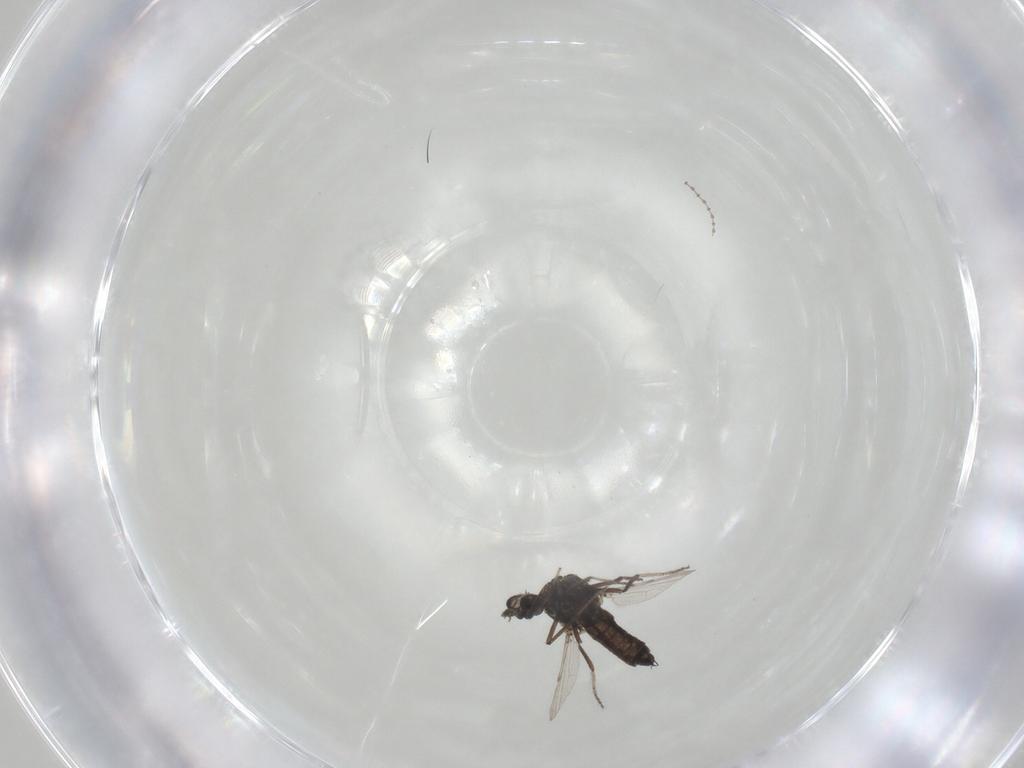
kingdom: Animalia
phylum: Arthropoda
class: Insecta
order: Diptera
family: Ceratopogonidae
